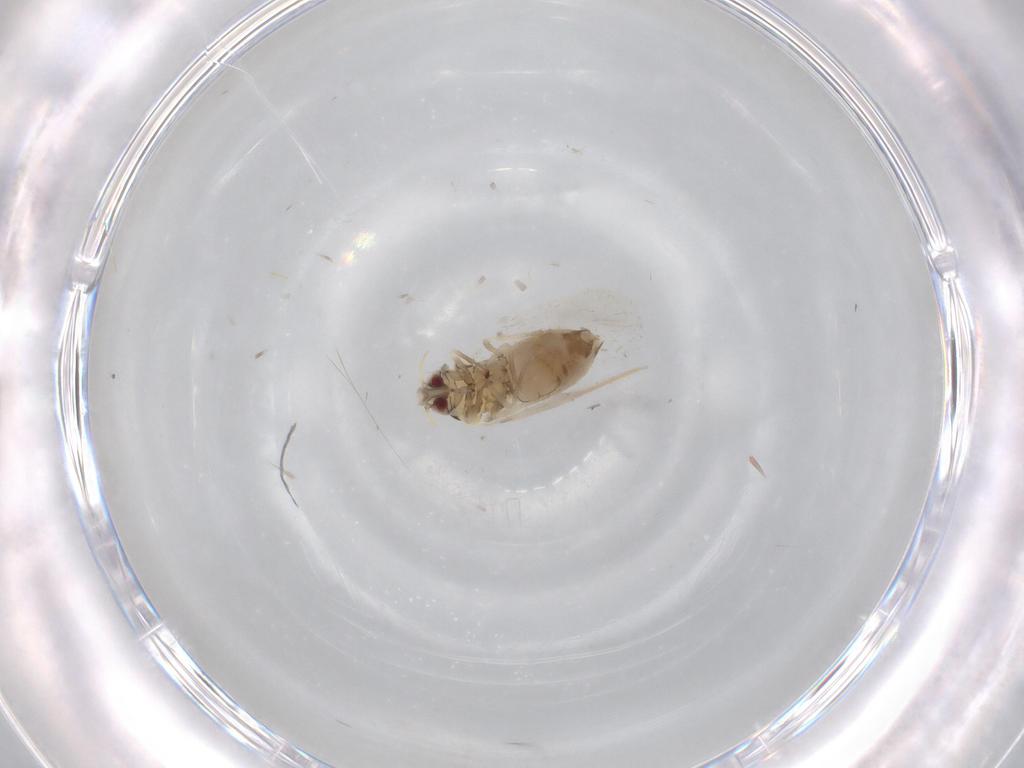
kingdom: Animalia
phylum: Arthropoda
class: Insecta
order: Hemiptera
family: Aleyrodidae
